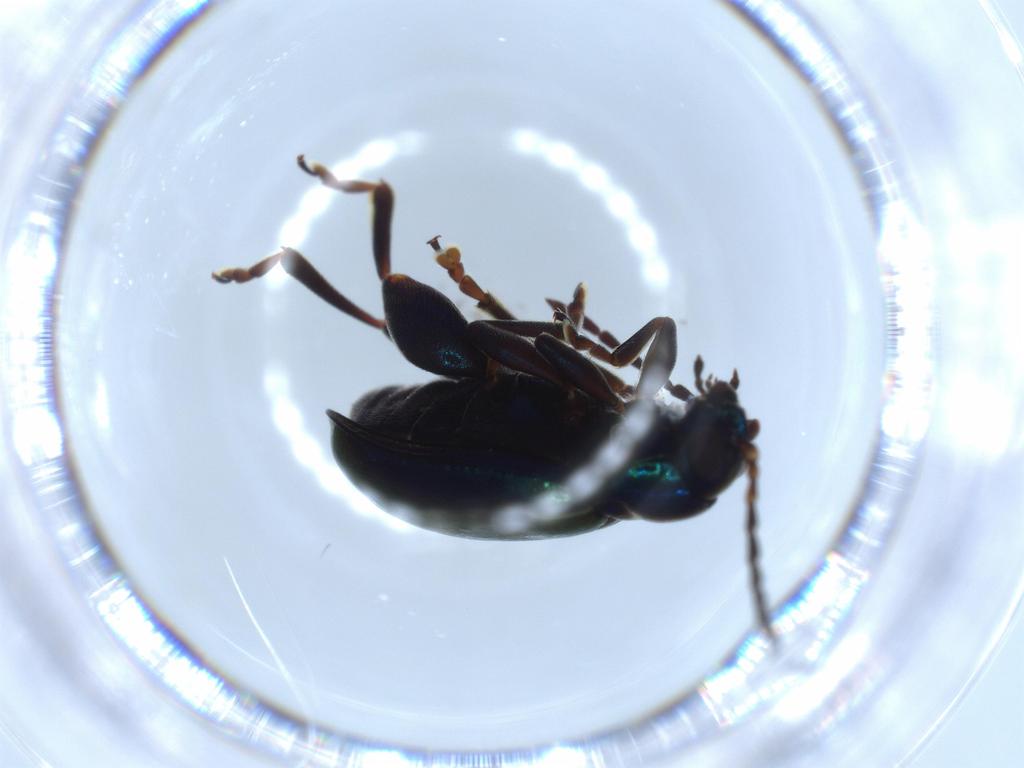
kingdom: Animalia
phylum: Arthropoda
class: Insecta
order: Coleoptera
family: Chrysomelidae
